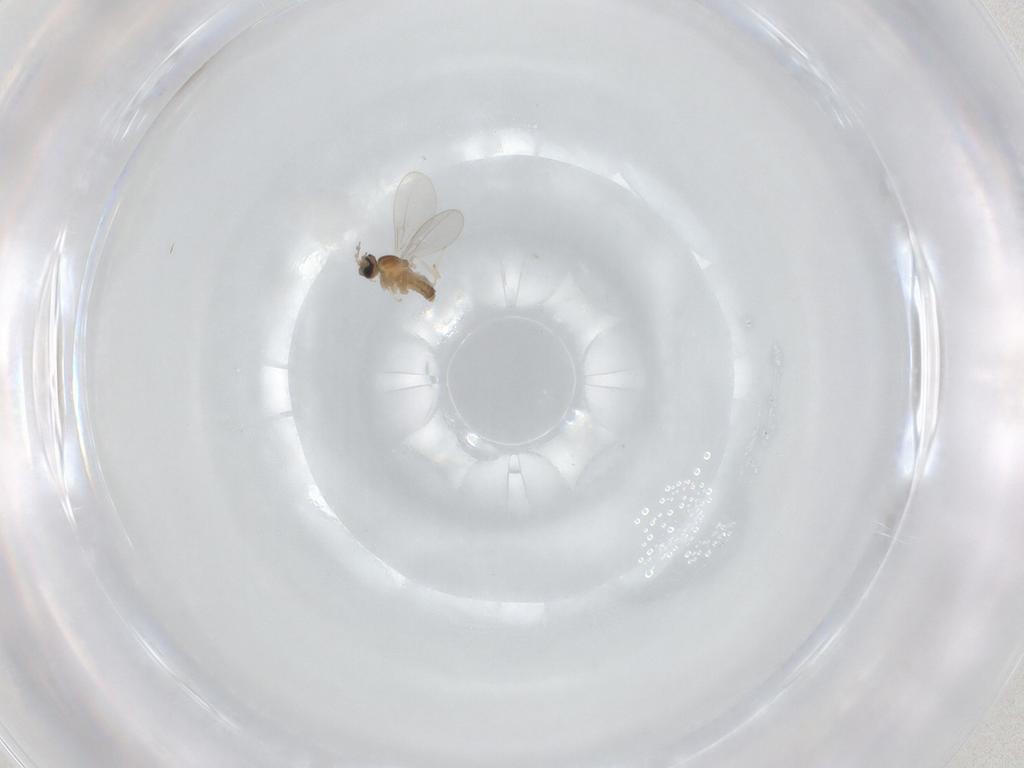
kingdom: Animalia
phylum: Arthropoda
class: Insecta
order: Diptera
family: Cecidomyiidae
